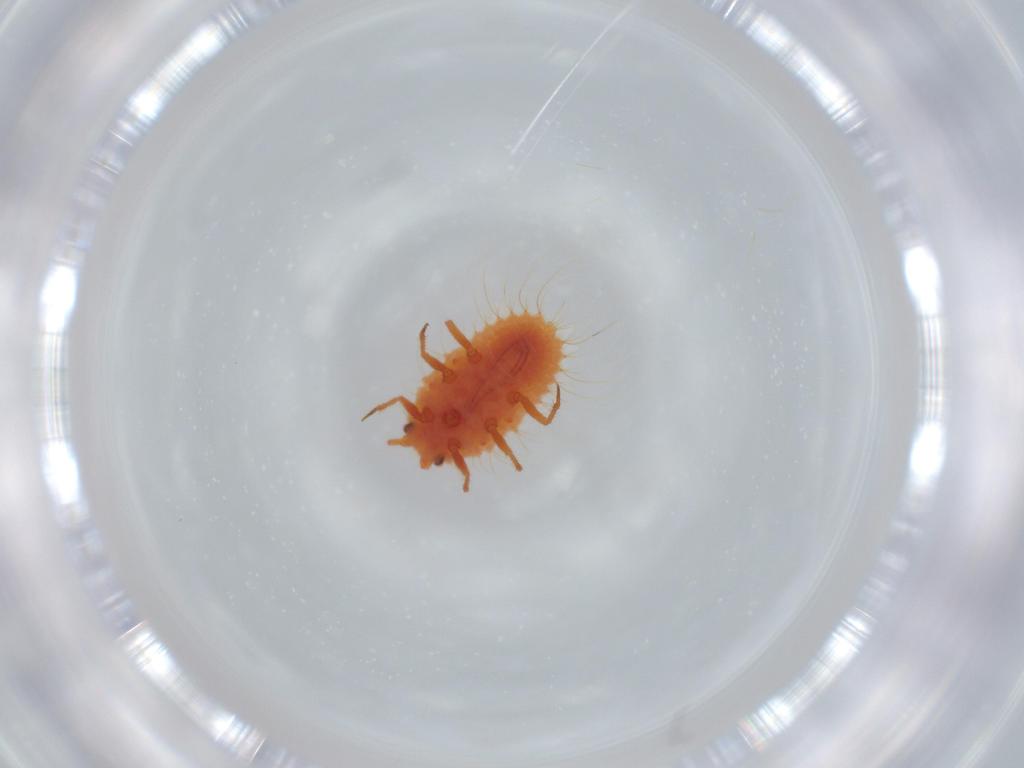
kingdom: Animalia
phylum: Arthropoda
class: Insecta
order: Hemiptera
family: Coccoidea_incertae_sedis
